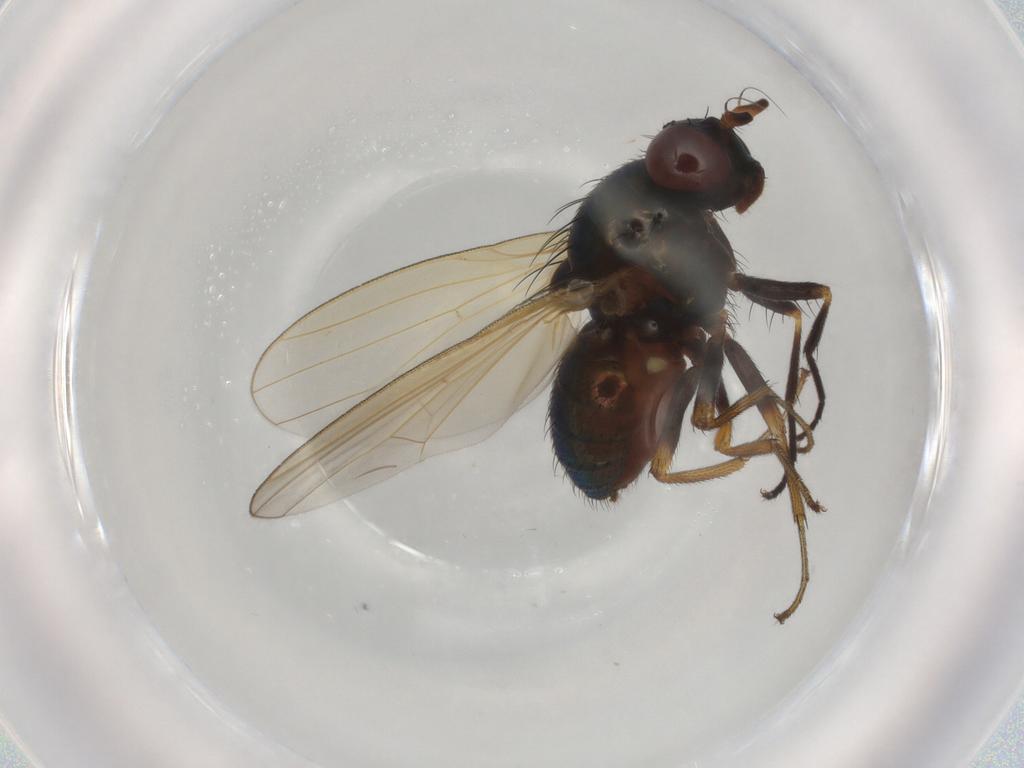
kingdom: Animalia
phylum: Arthropoda
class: Insecta
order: Diptera
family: Lauxaniidae
